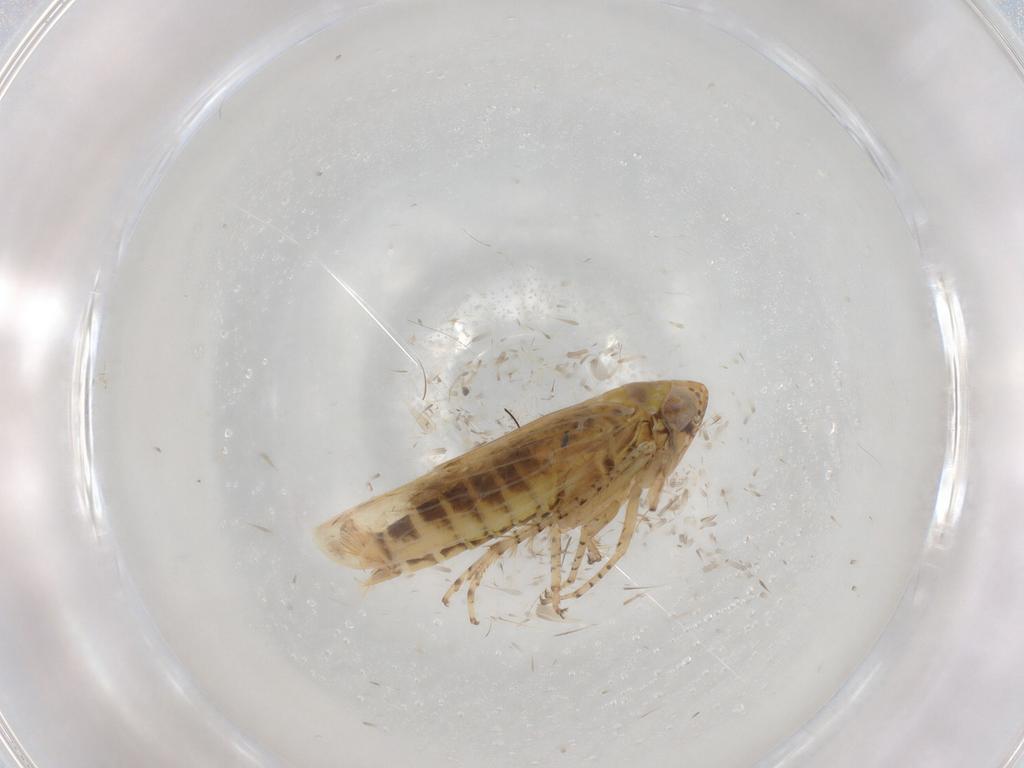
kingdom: Animalia
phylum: Arthropoda
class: Insecta
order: Hemiptera
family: Cicadellidae
